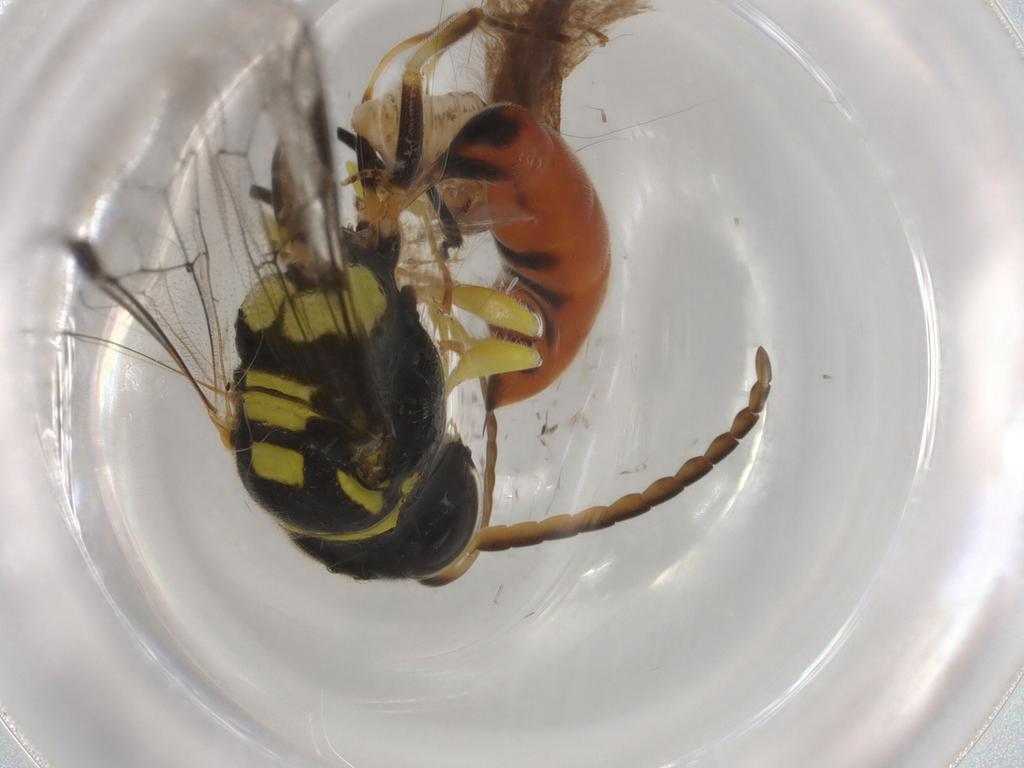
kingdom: Animalia
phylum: Arthropoda
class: Insecta
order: Hymenoptera
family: Crabronidae
